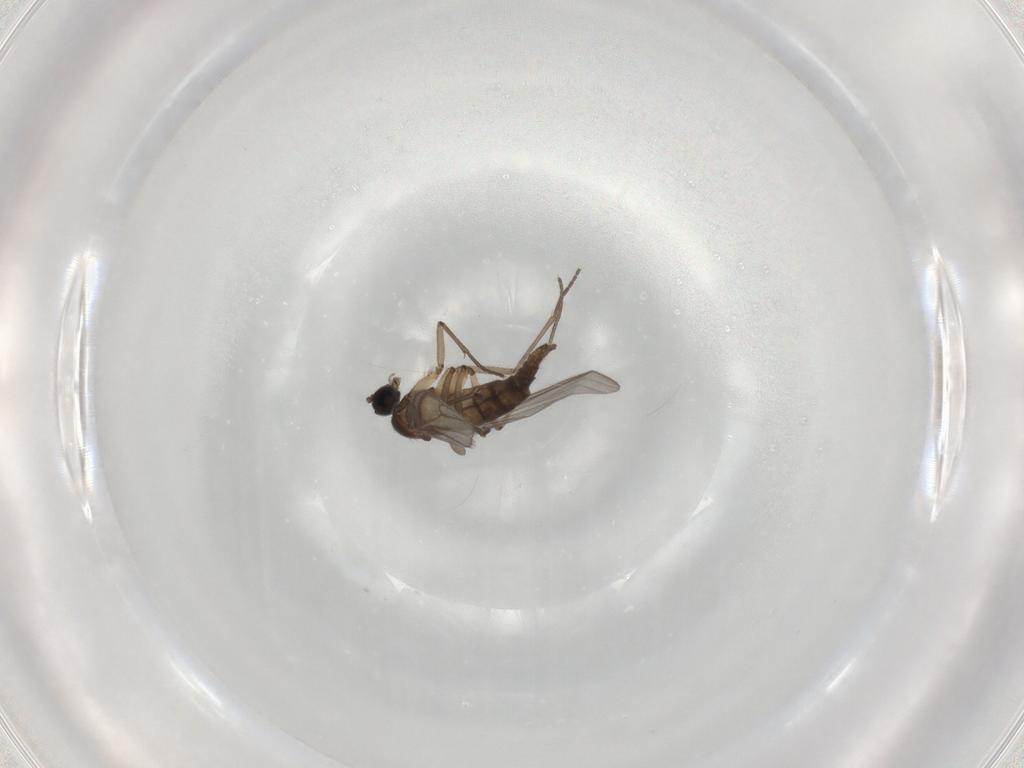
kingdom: Animalia
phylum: Arthropoda
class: Insecta
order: Diptera
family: Sciaridae
